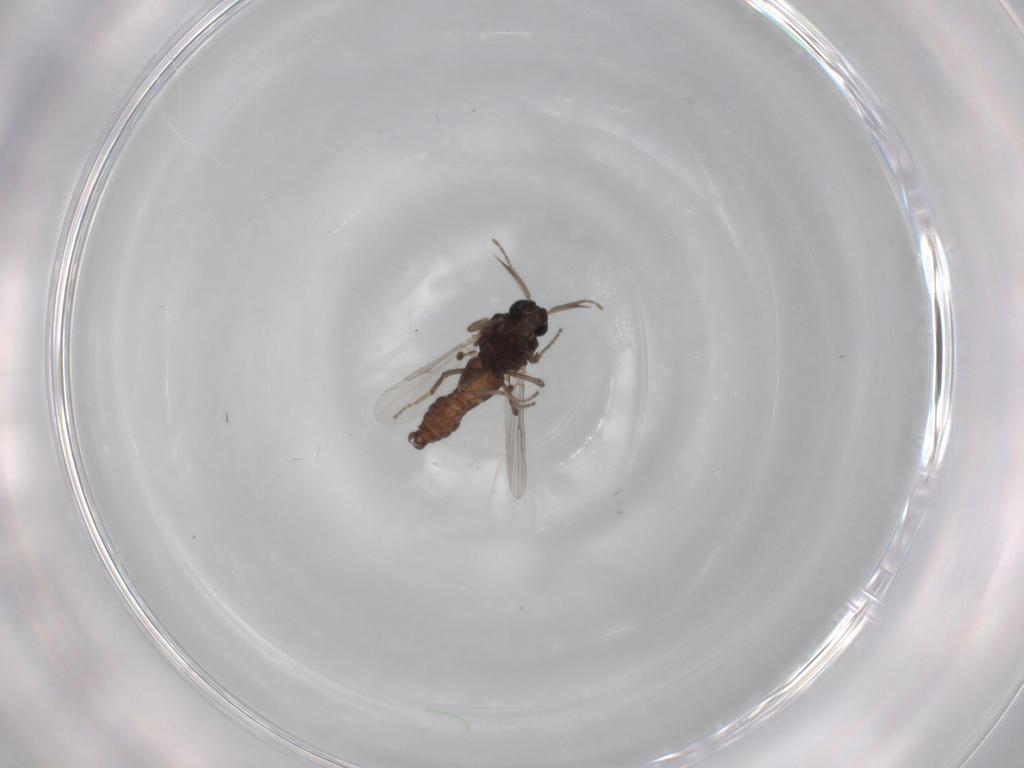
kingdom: Animalia
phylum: Arthropoda
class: Insecta
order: Diptera
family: Ceratopogonidae
